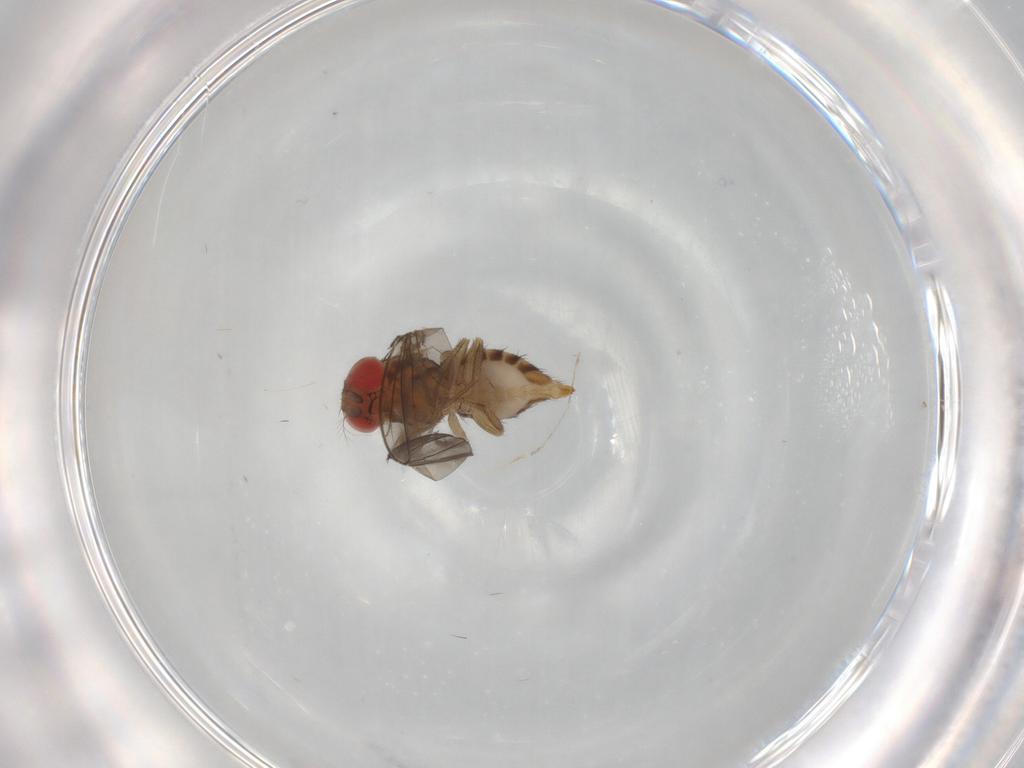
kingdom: Animalia
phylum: Arthropoda
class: Insecta
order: Diptera
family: Drosophilidae
